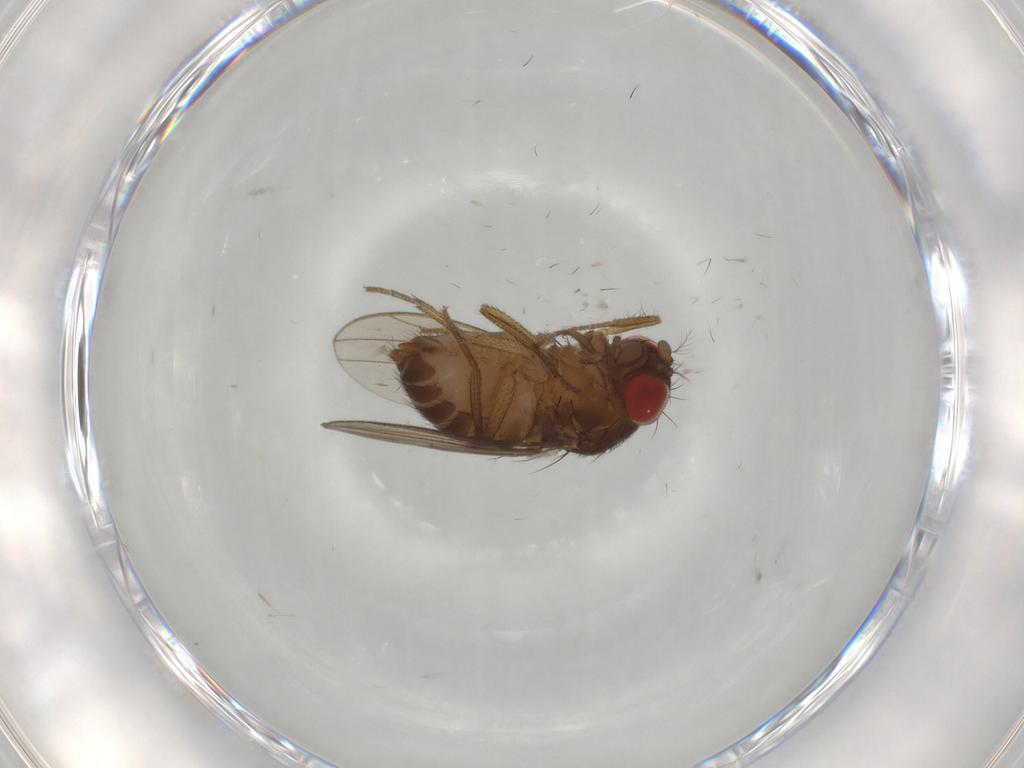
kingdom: Animalia
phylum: Arthropoda
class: Insecta
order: Diptera
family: Drosophilidae
